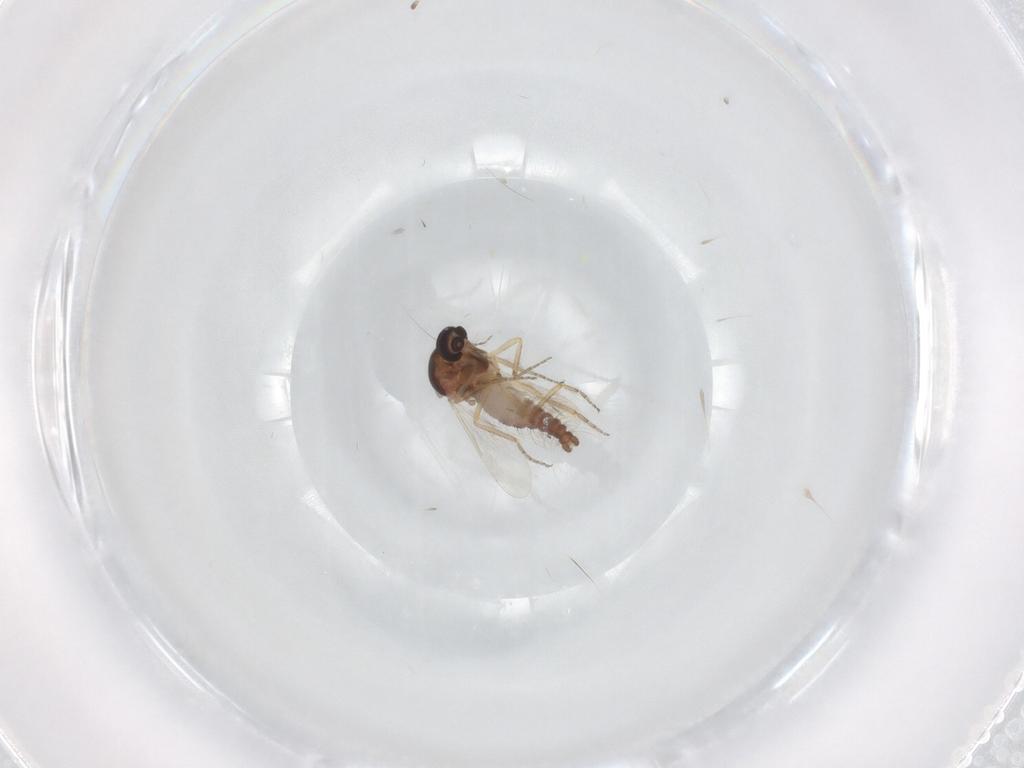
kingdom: Animalia
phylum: Arthropoda
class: Insecta
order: Diptera
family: Ceratopogonidae
